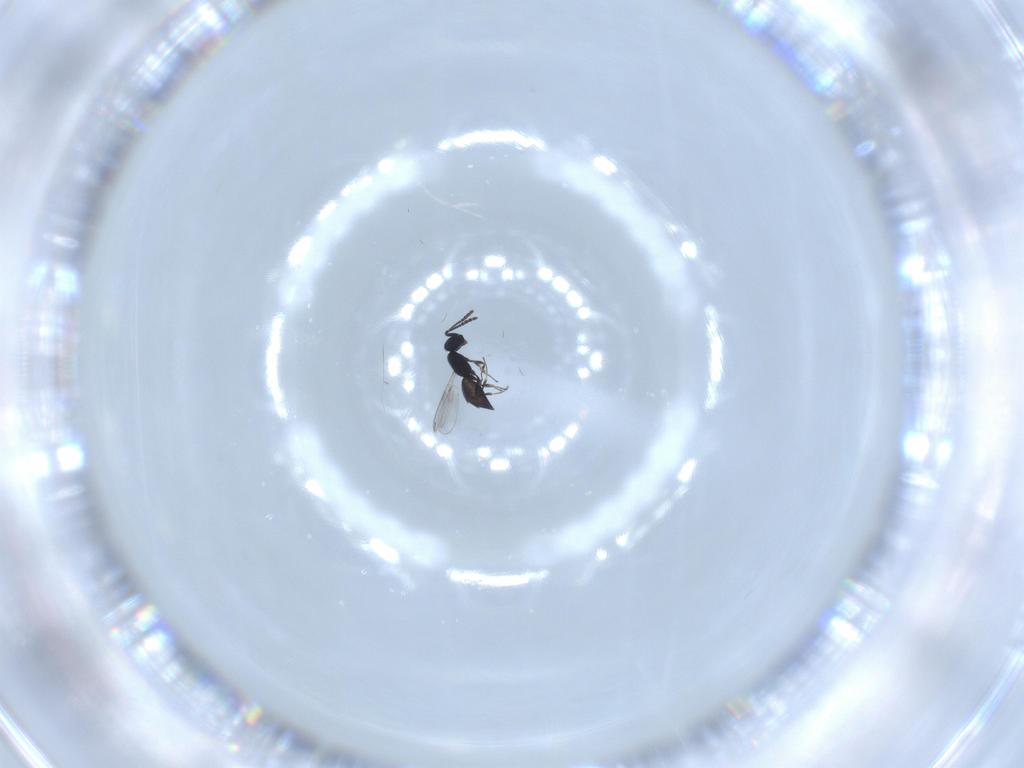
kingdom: Animalia
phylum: Arthropoda
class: Insecta
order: Hymenoptera
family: Scelionidae
